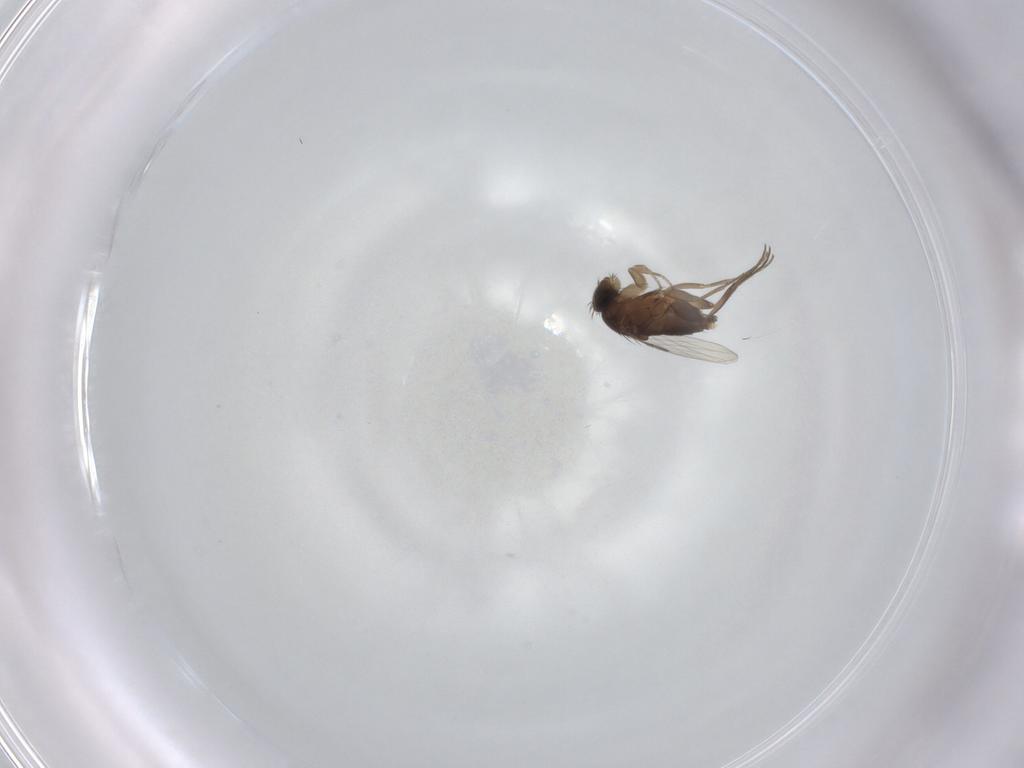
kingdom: Animalia
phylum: Arthropoda
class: Insecta
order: Diptera
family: Phoridae
